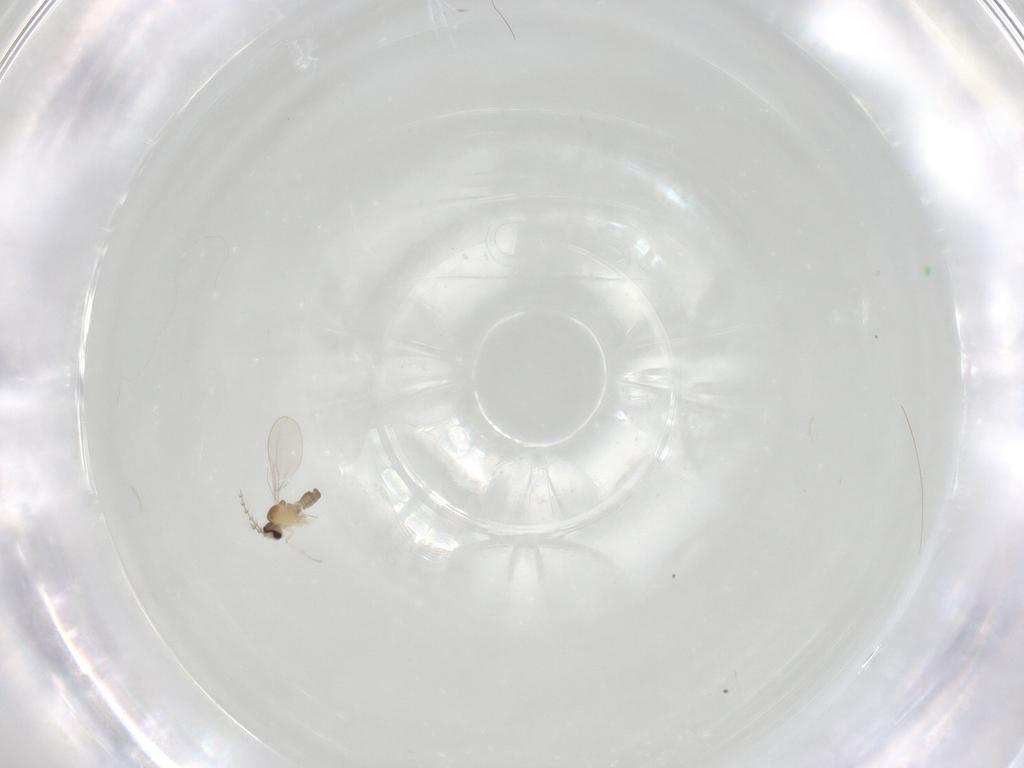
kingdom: Animalia
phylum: Arthropoda
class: Insecta
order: Diptera
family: Cecidomyiidae
